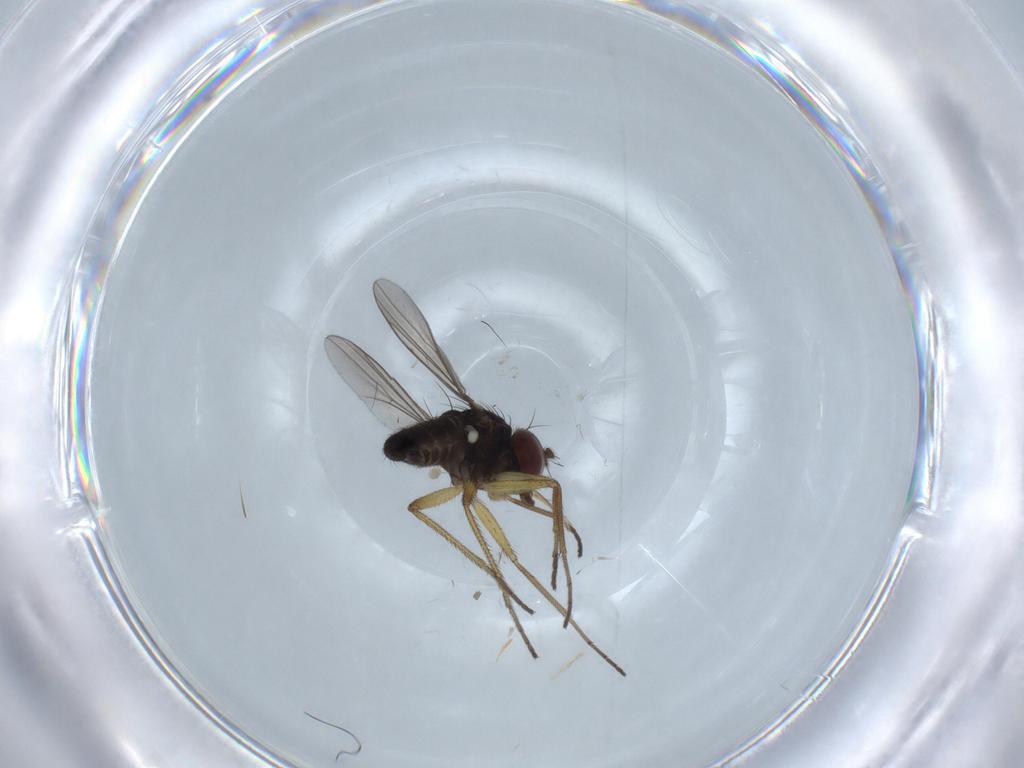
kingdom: Animalia
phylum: Arthropoda
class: Insecta
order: Diptera
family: Dolichopodidae
